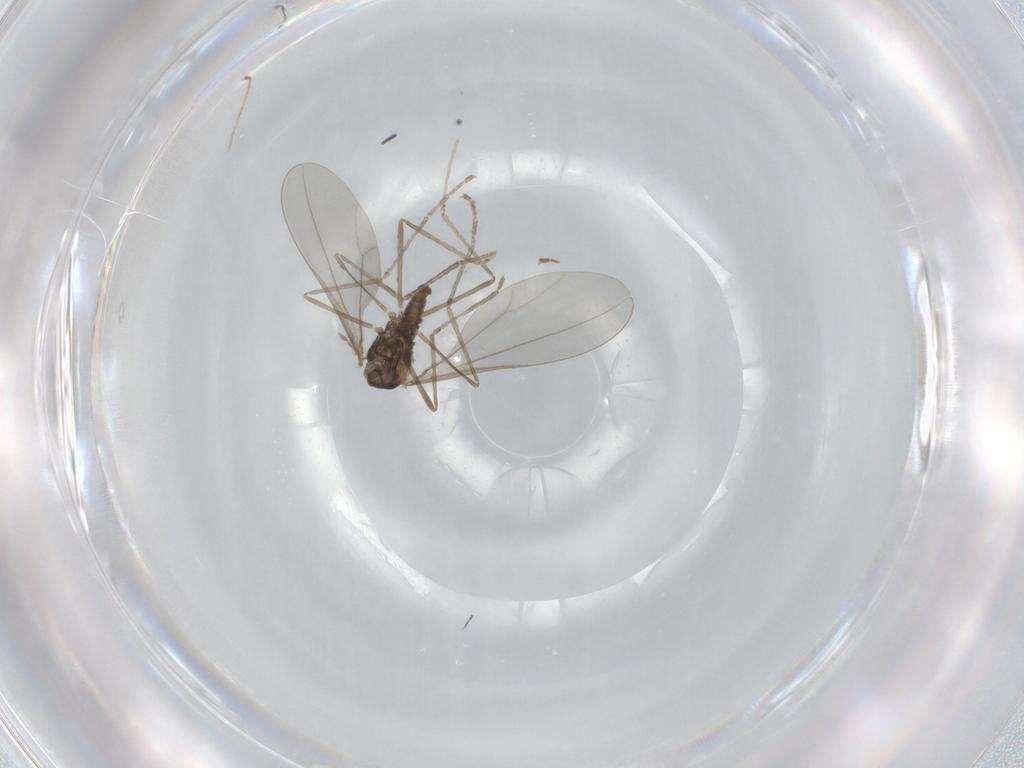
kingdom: Animalia
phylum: Arthropoda
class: Insecta
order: Diptera
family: Cecidomyiidae
